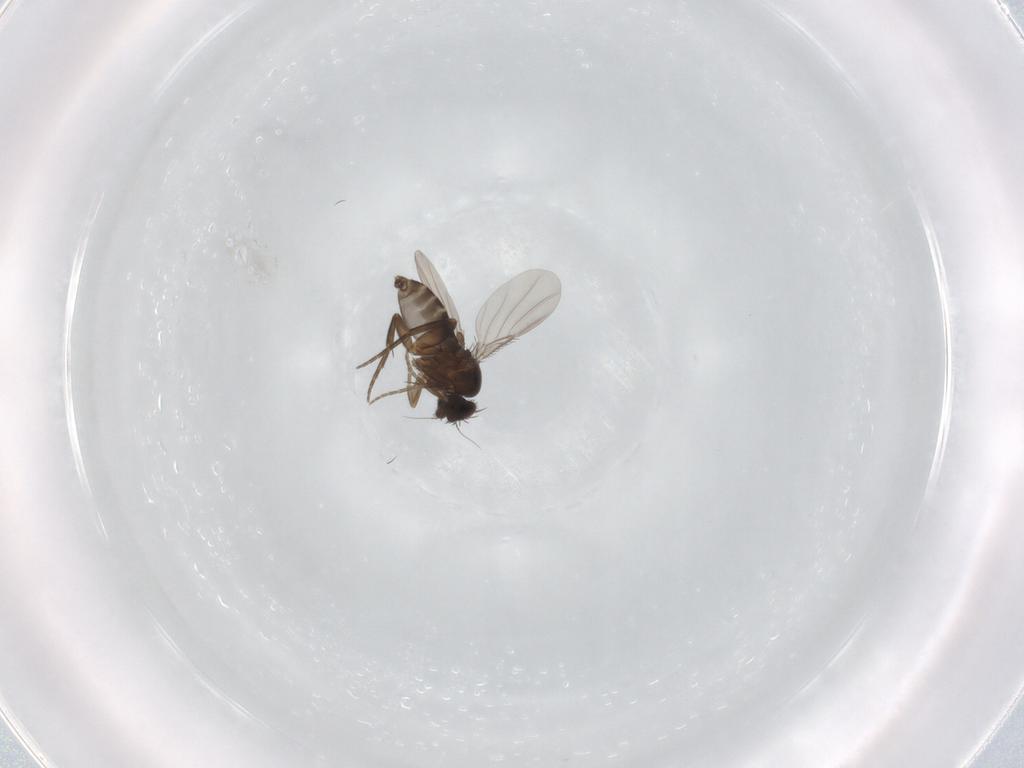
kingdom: Animalia
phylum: Arthropoda
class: Insecta
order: Diptera
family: Phoridae
